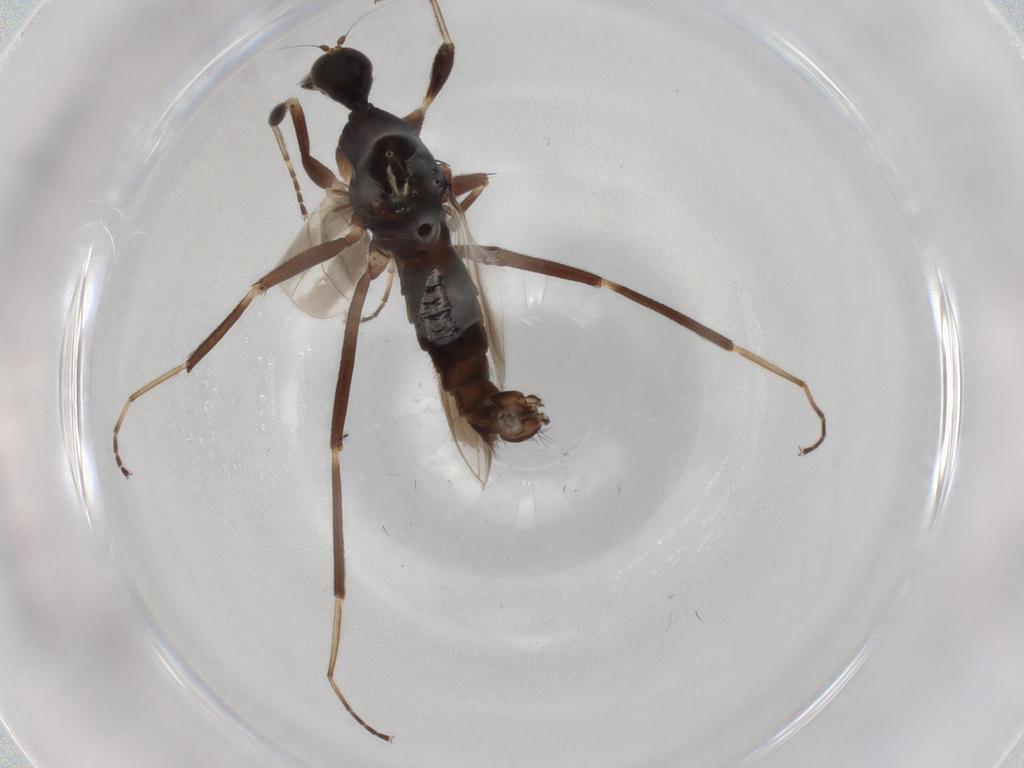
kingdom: Animalia
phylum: Arthropoda
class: Insecta
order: Diptera
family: Hybotidae
